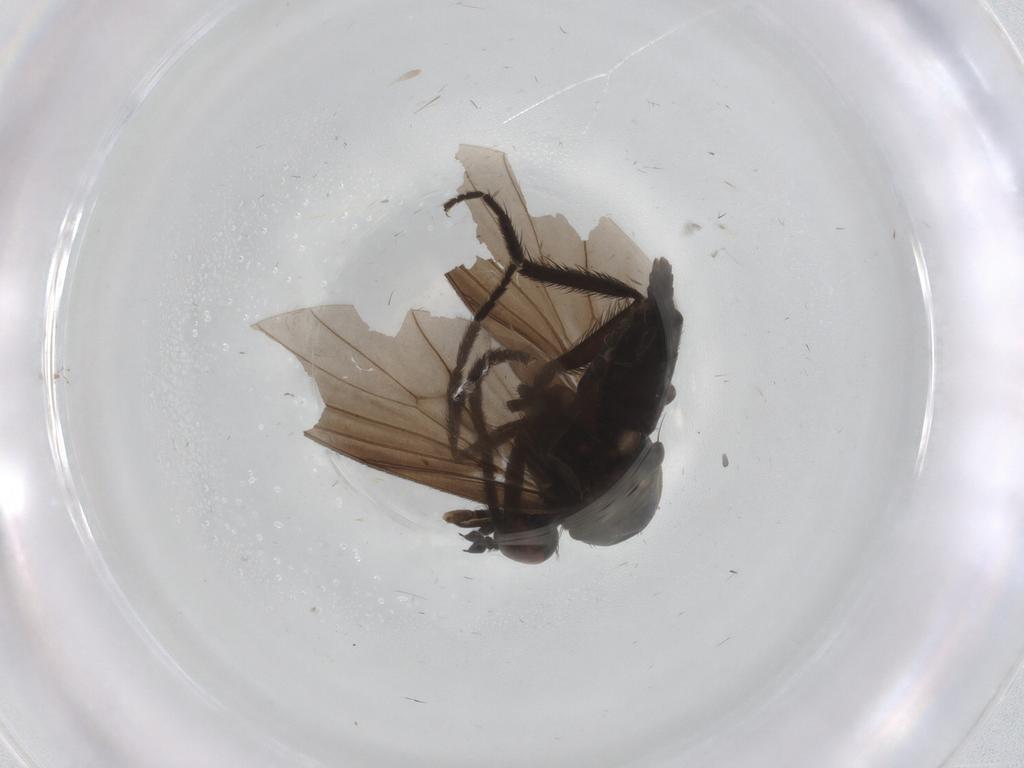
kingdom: Animalia
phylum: Arthropoda
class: Insecta
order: Diptera
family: Empididae
